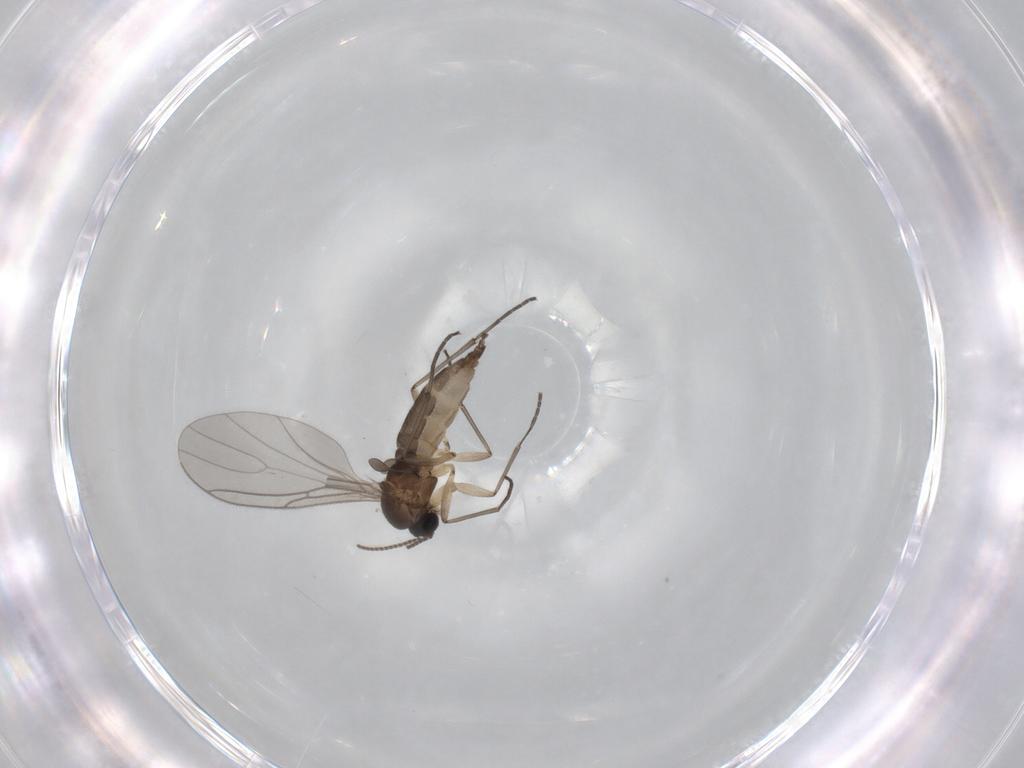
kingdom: Animalia
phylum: Arthropoda
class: Insecta
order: Diptera
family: Sciaridae
